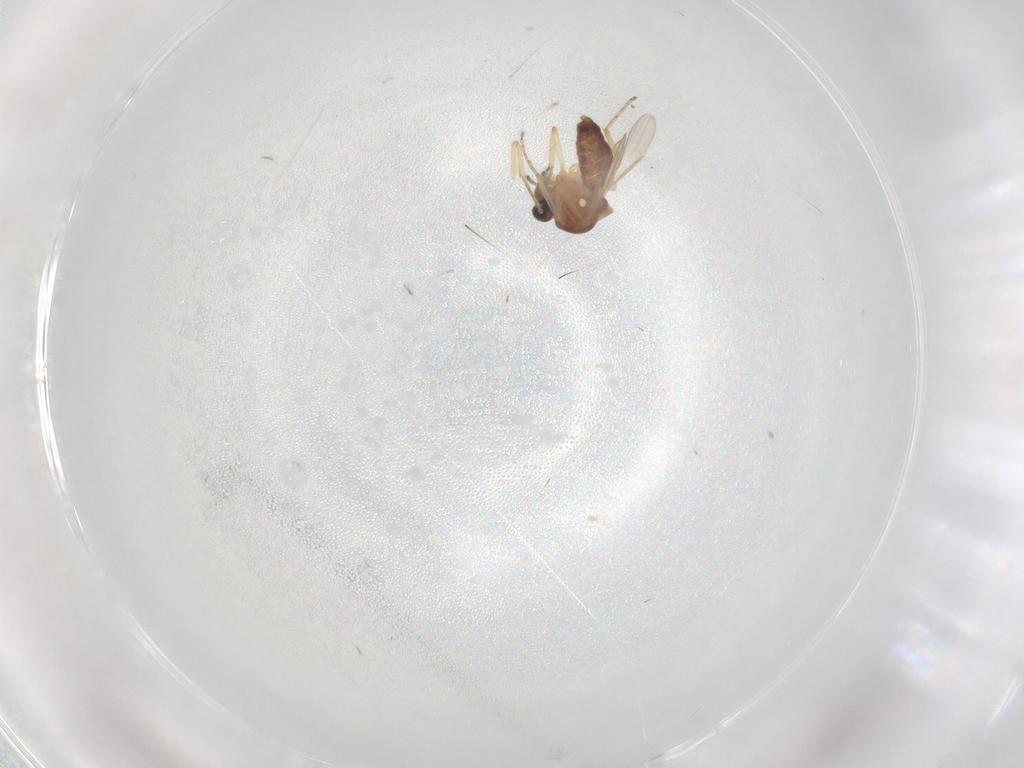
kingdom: Animalia
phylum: Arthropoda
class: Insecta
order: Diptera
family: Ceratopogonidae
